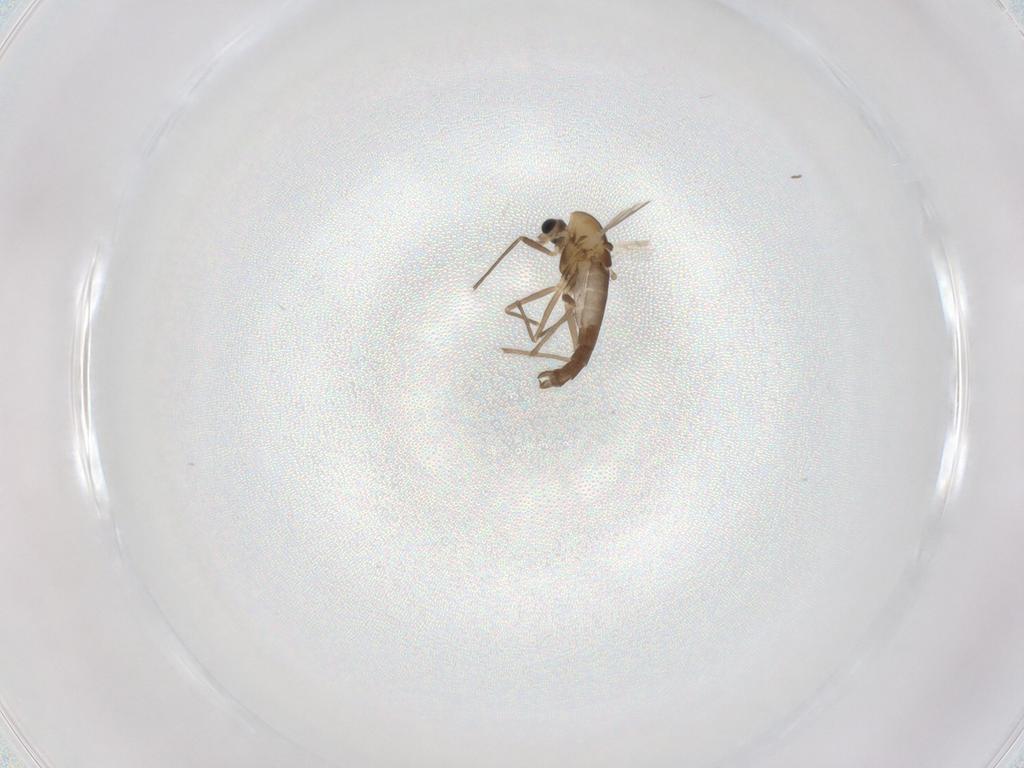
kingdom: Animalia
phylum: Arthropoda
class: Insecta
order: Diptera
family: Chironomidae
